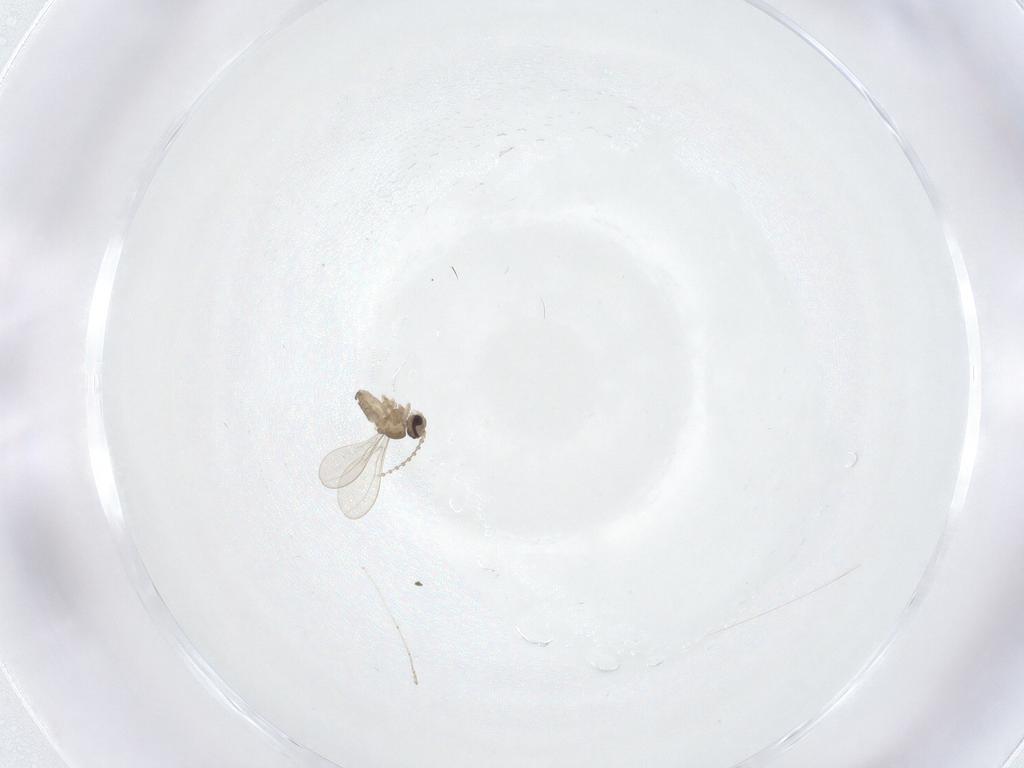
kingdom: Animalia
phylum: Arthropoda
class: Insecta
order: Diptera
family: Cecidomyiidae
